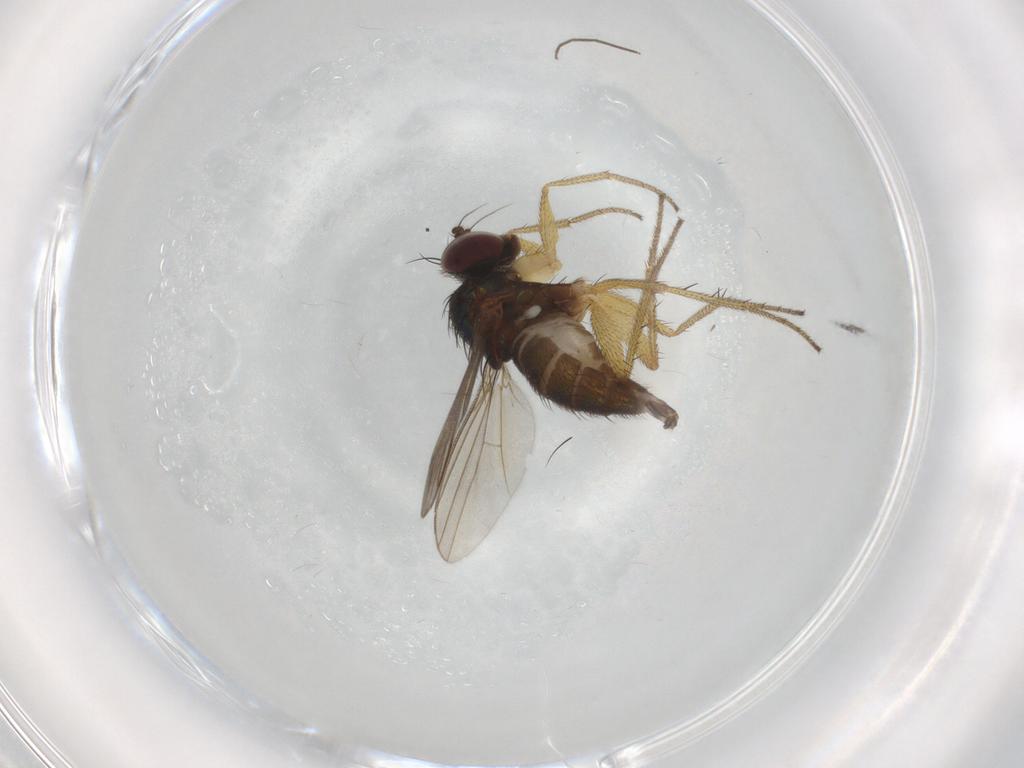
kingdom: Animalia
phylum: Arthropoda
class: Insecta
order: Diptera
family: Dolichopodidae
